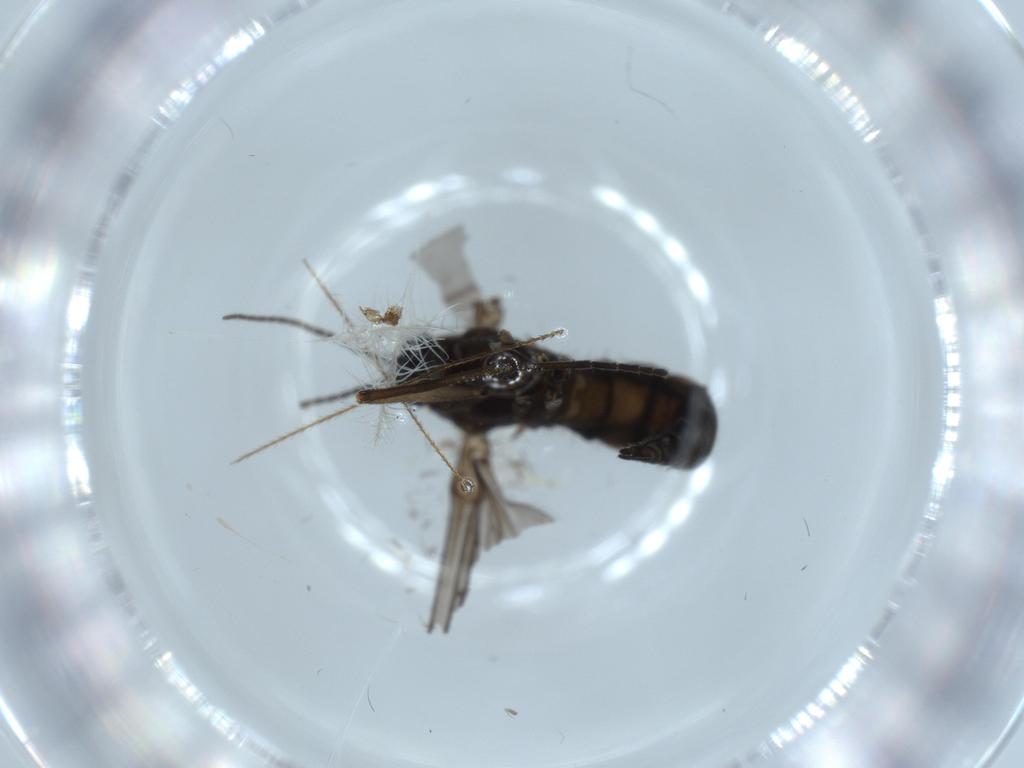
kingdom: Animalia
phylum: Arthropoda
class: Insecta
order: Diptera
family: Sciaridae
